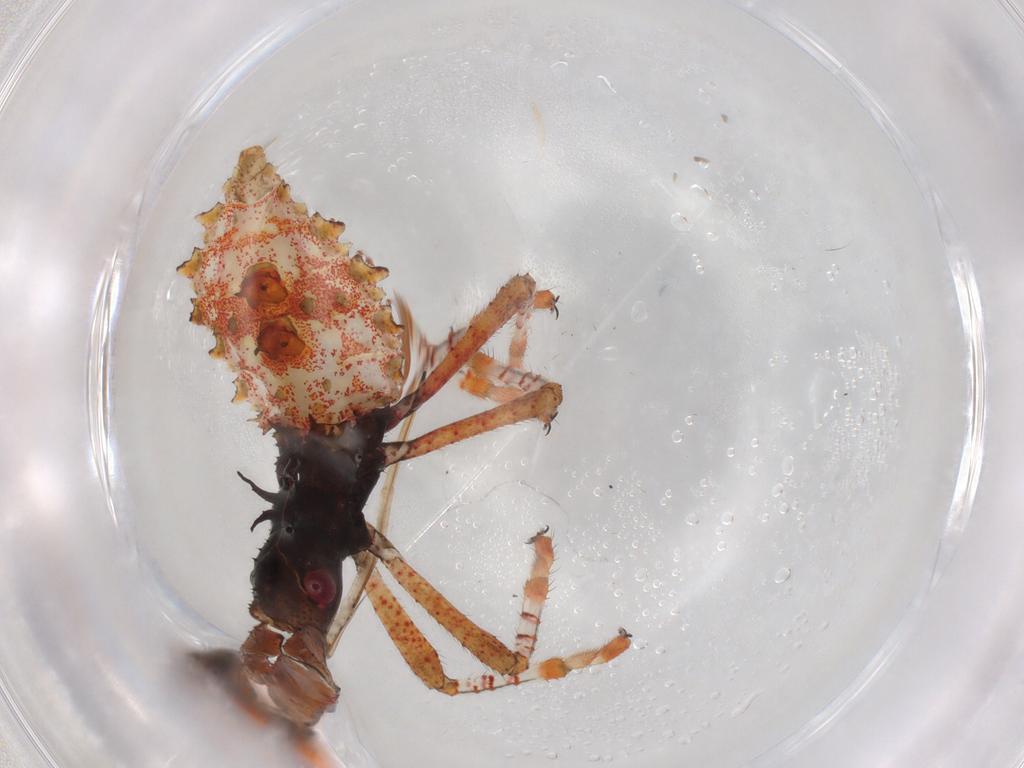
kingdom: Animalia
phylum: Arthropoda
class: Insecta
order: Hemiptera
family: Coreidae
